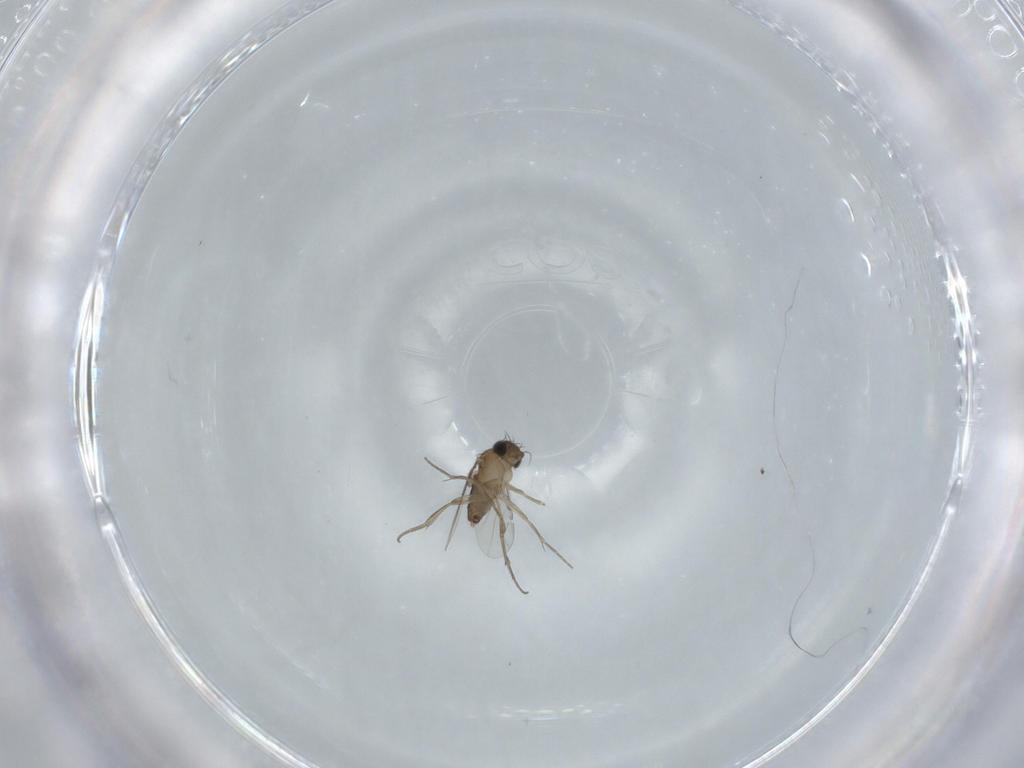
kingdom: Animalia
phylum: Arthropoda
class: Insecta
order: Diptera
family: Phoridae
